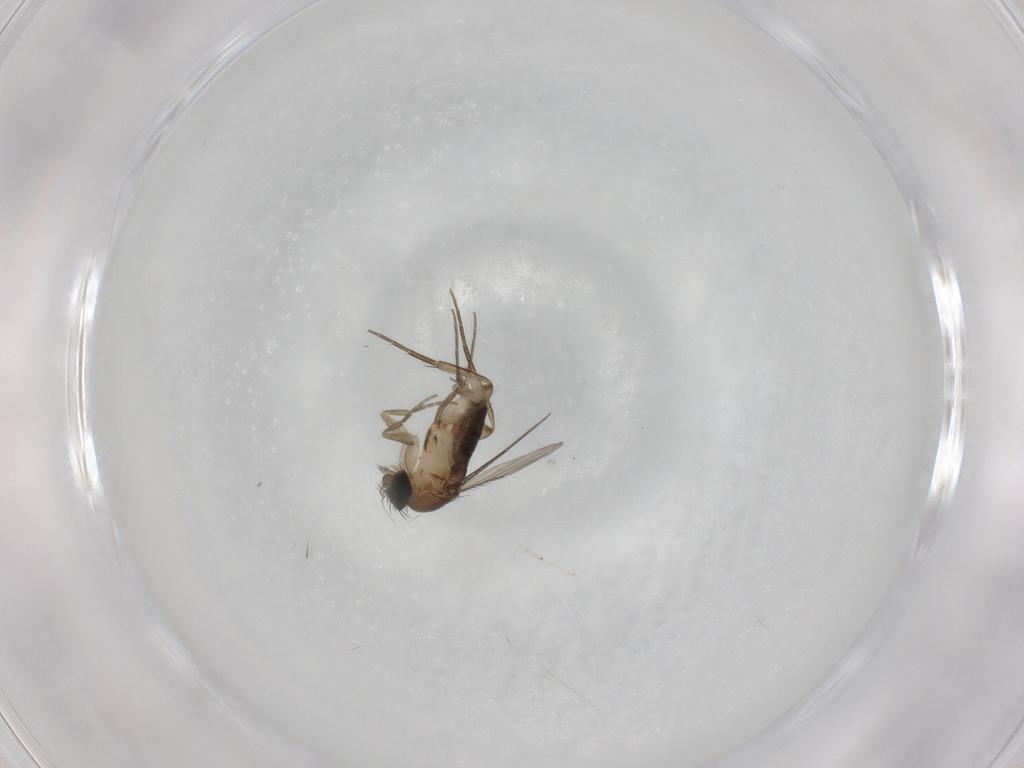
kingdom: Animalia
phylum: Arthropoda
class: Insecta
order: Diptera
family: Phoridae
